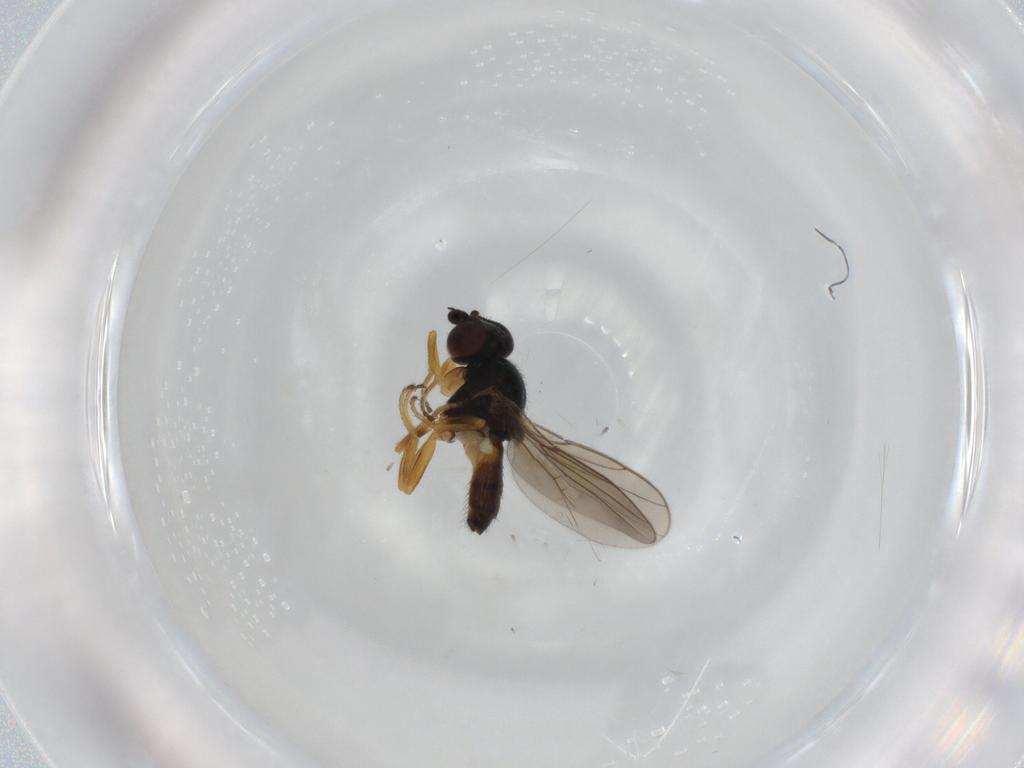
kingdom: Animalia
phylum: Arthropoda
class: Insecta
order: Diptera
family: Chloropidae
